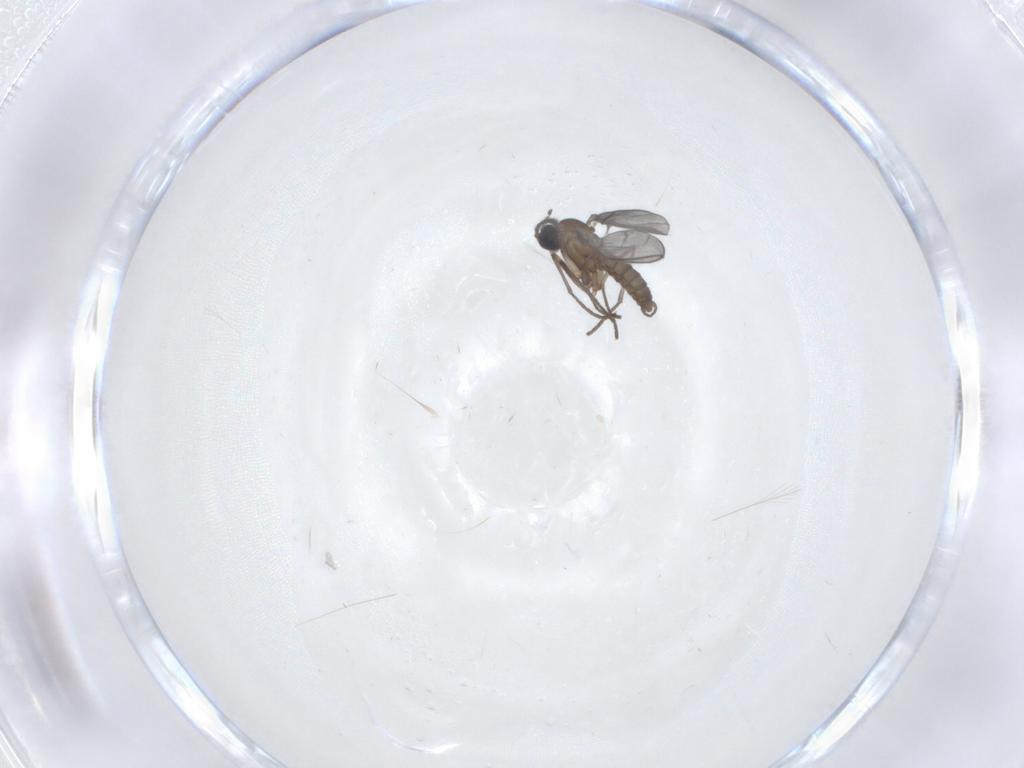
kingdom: Animalia
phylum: Arthropoda
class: Insecta
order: Diptera
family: Sciaridae
